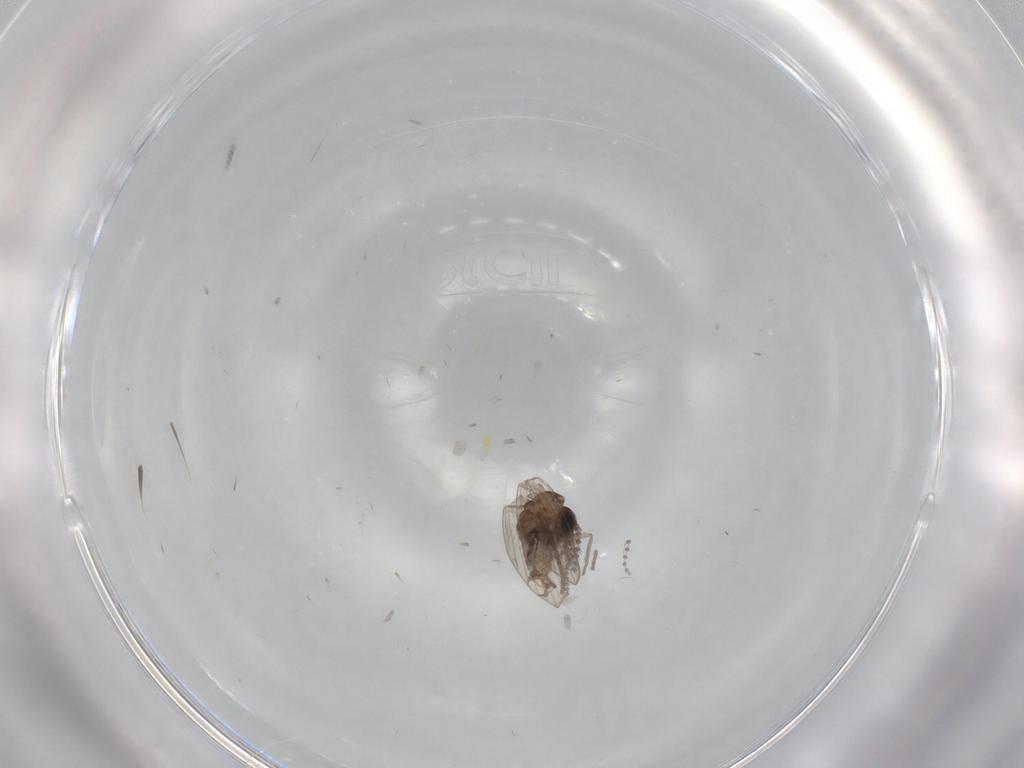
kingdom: Animalia
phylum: Arthropoda
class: Insecta
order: Diptera
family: Psychodidae
